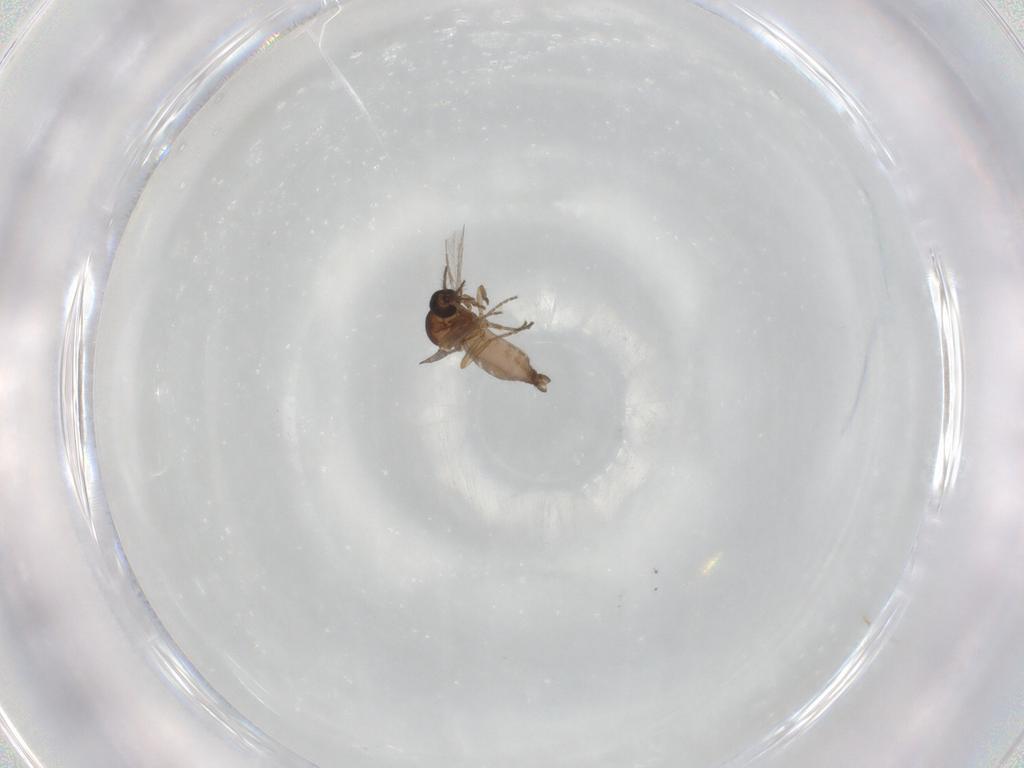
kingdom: Animalia
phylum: Arthropoda
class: Insecta
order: Diptera
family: Ceratopogonidae
